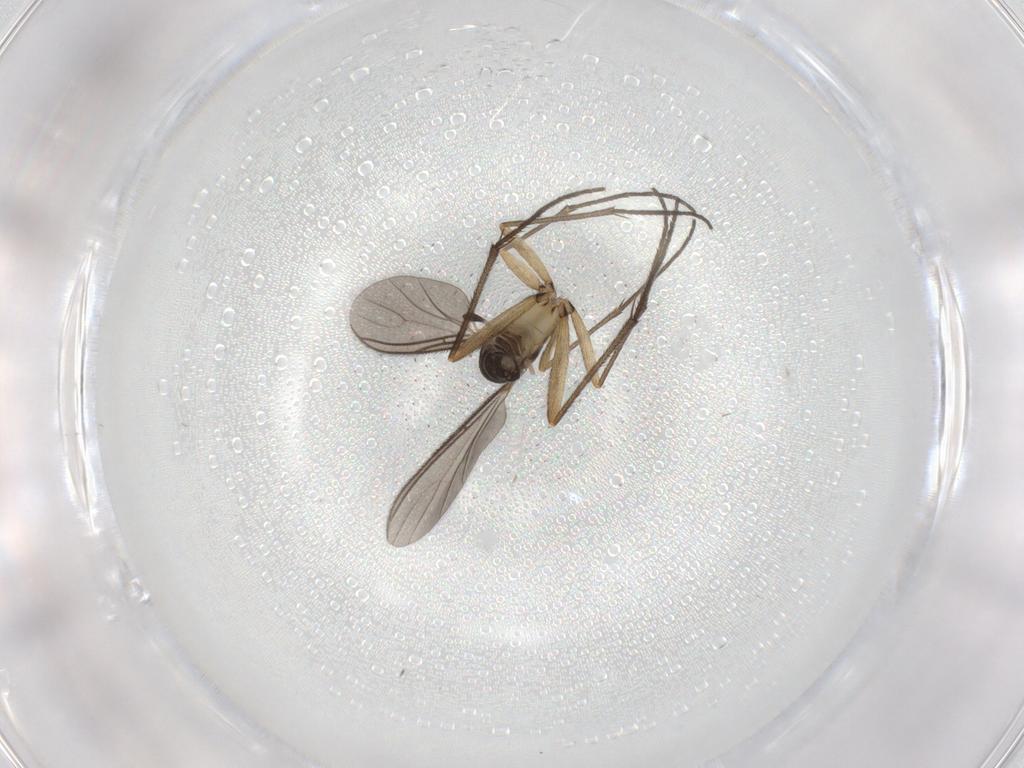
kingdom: Animalia
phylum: Arthropoda
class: Insecta
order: Diptera
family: Sciaridae
